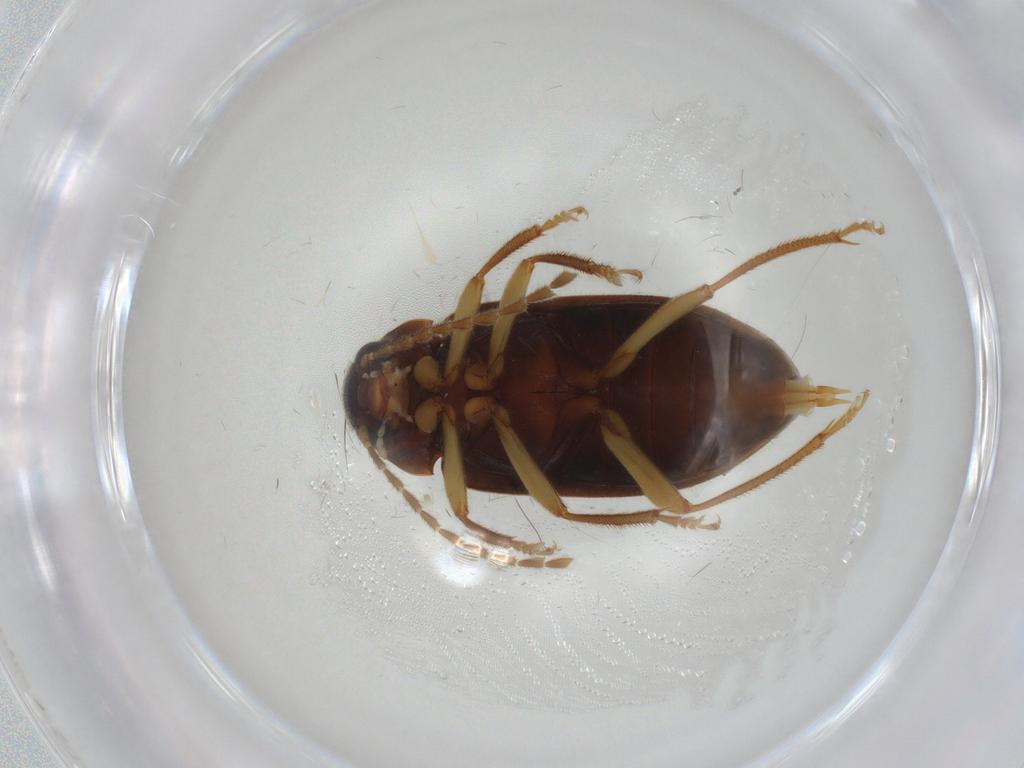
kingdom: Animalia
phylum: Arthropoda
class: Insecta
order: Coleoptera
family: Ptilodactylidae
